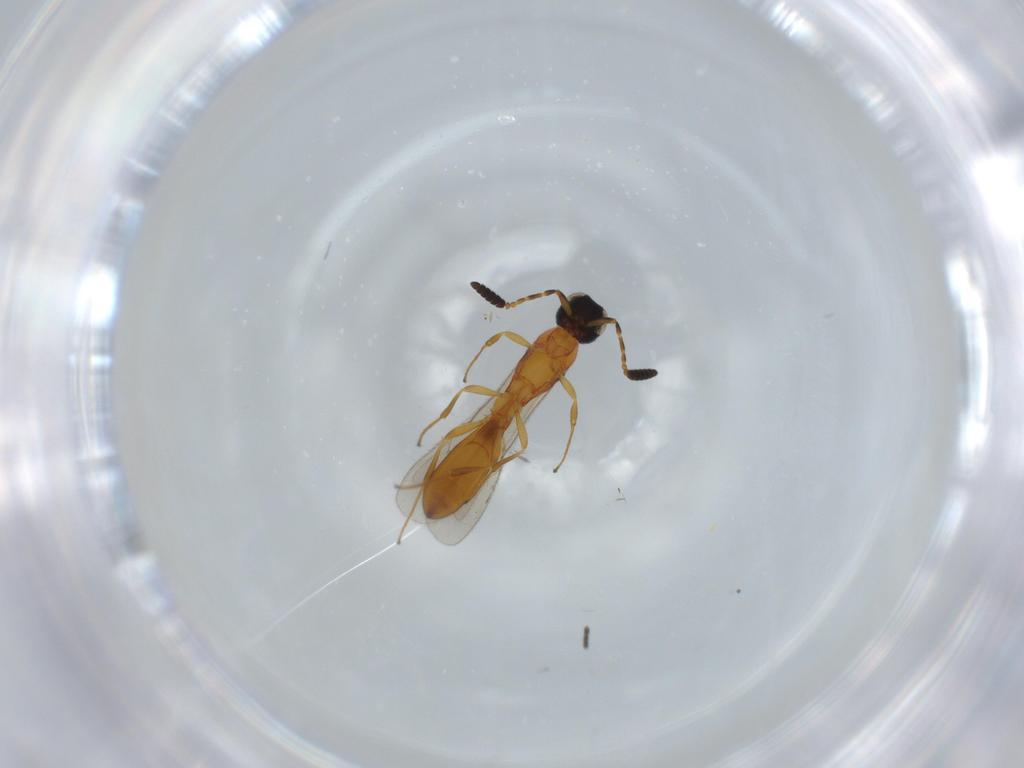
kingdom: Animalia
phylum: Arthropoda
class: Insecta
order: Hymenoptera
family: Scelionidae
